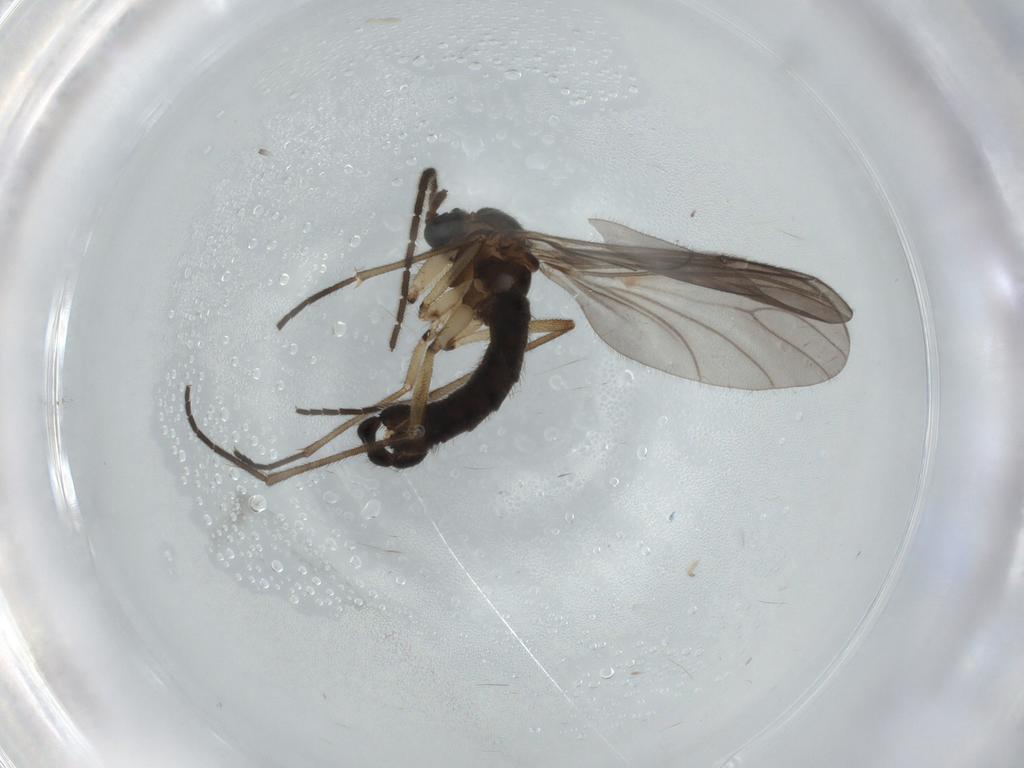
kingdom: Animalia
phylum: Arthropoda
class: Insecta
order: Diptera
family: Sciaridae
